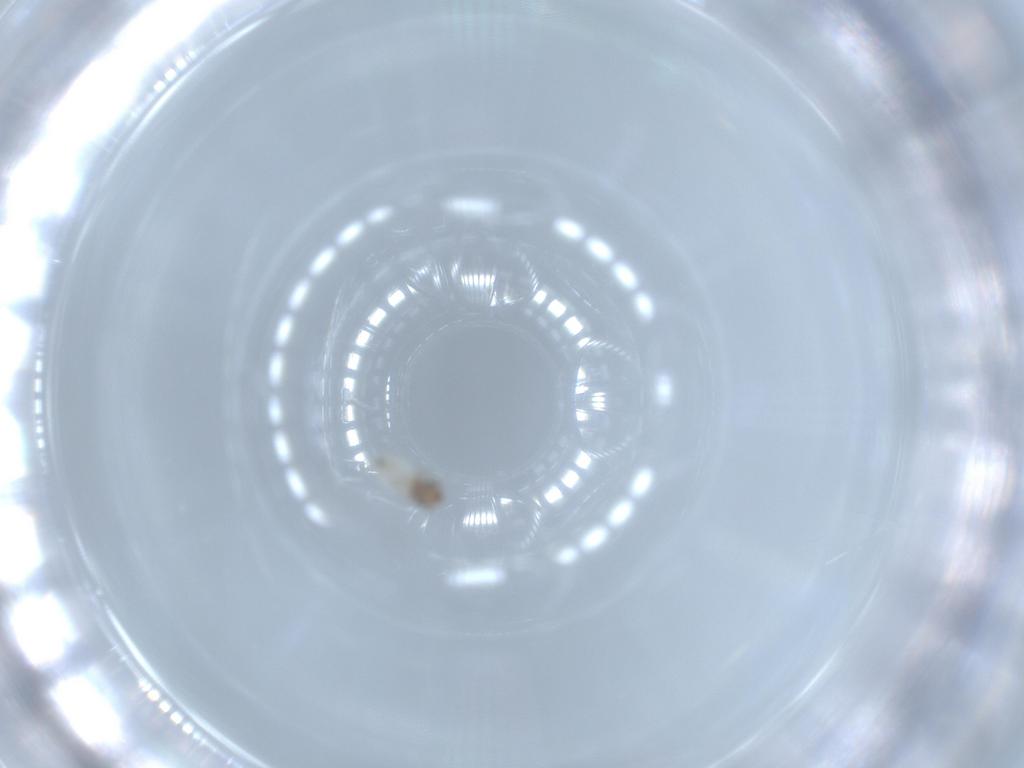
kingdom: Animalia
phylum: Arthropoda
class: Insecta
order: Psocodea
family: Lepidopsocidae
